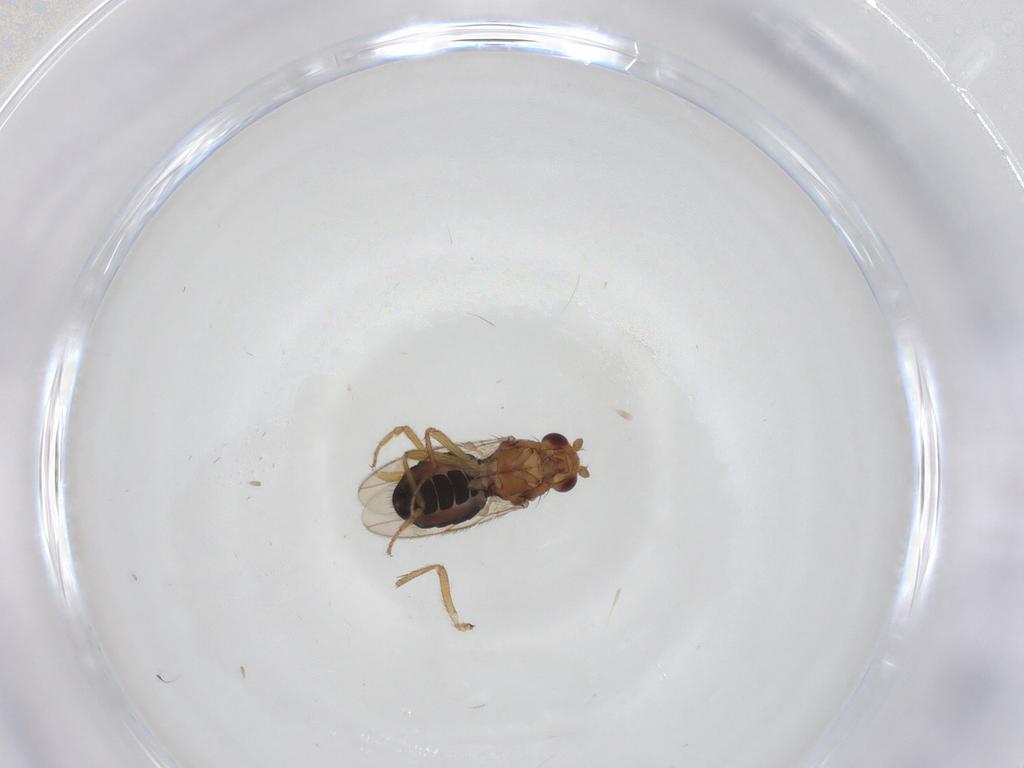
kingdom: Animalia
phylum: Arthropoda
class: Insecta
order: Diptera
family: Sphaeroceridae
